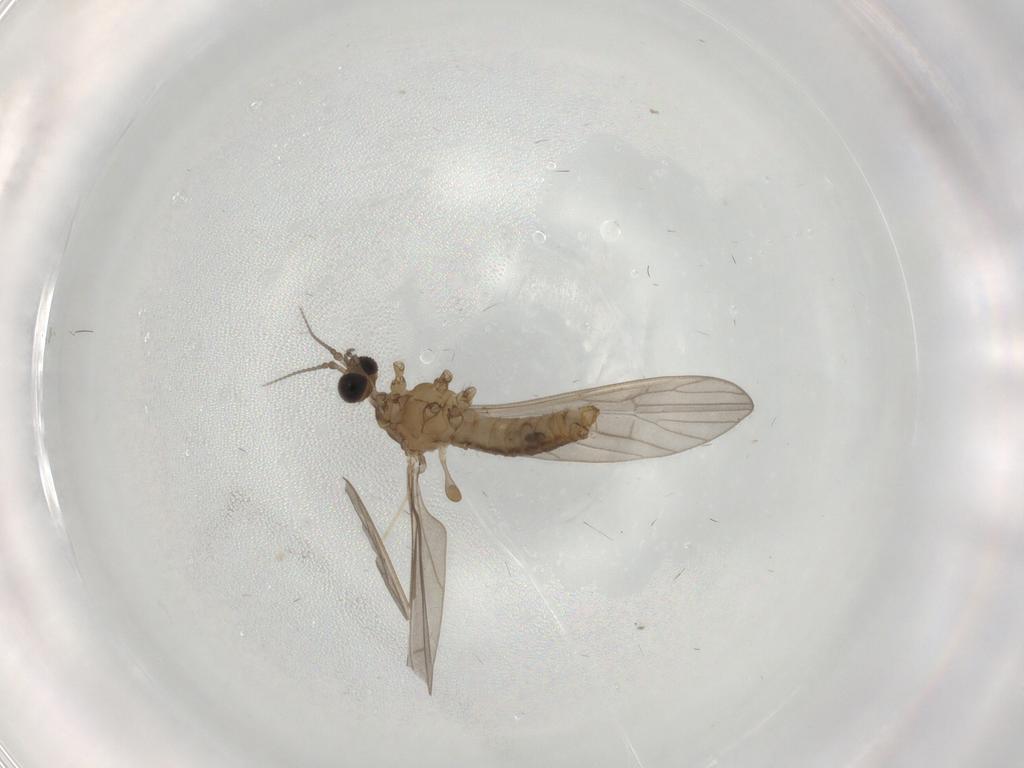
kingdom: Animalia
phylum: Arthropoda
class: Insecta
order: Diptera
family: Limoniidae
